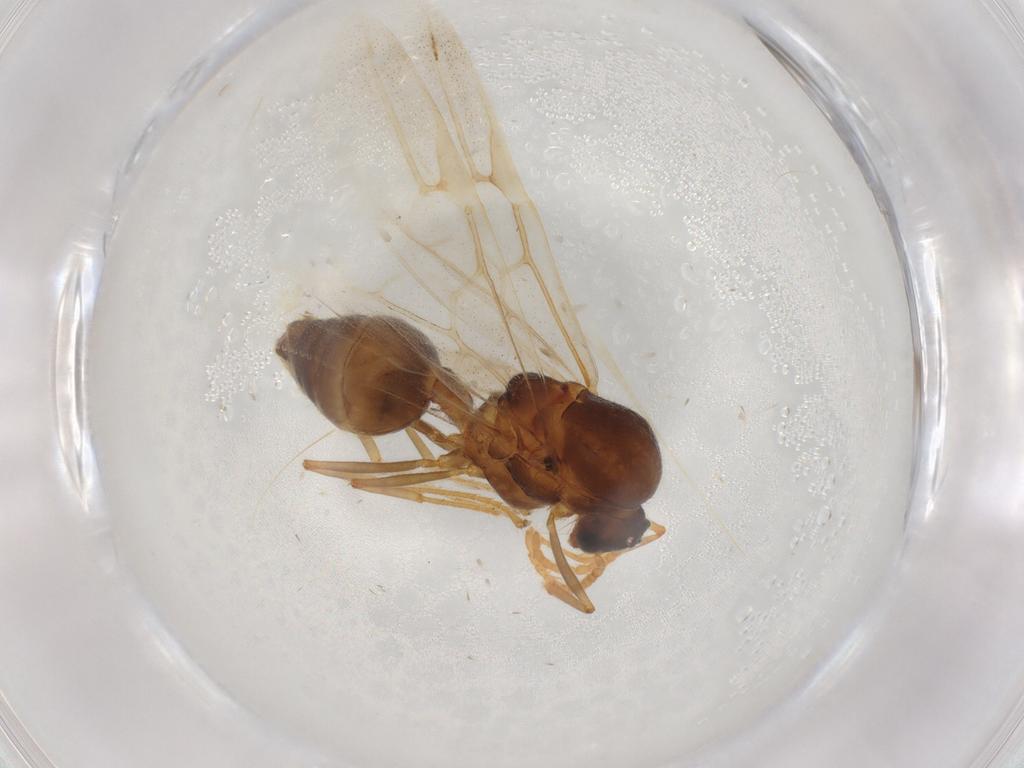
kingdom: Animalia
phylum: Arthropoda
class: Insecta
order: Hymenoptera
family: Formicidae
